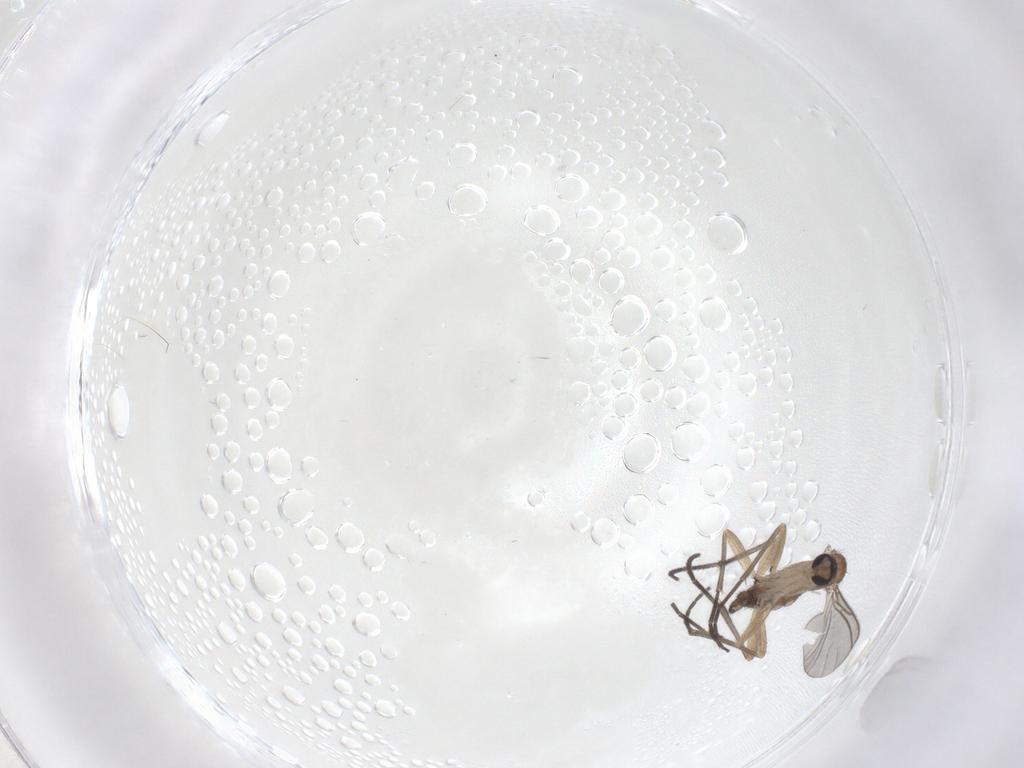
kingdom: Animalia
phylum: Arthropoda
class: Insecta
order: Diptera
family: Sciaridae
